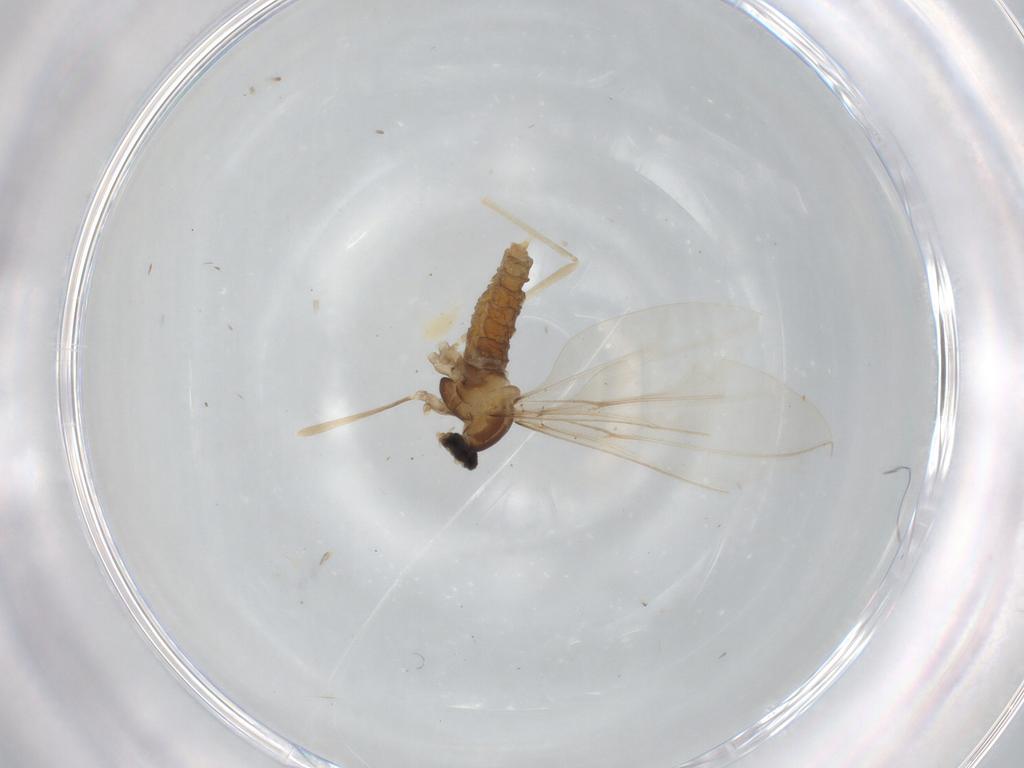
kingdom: Animalia
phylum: Arthropoda
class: Insecta
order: Diptera
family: Cecidomyiidae
